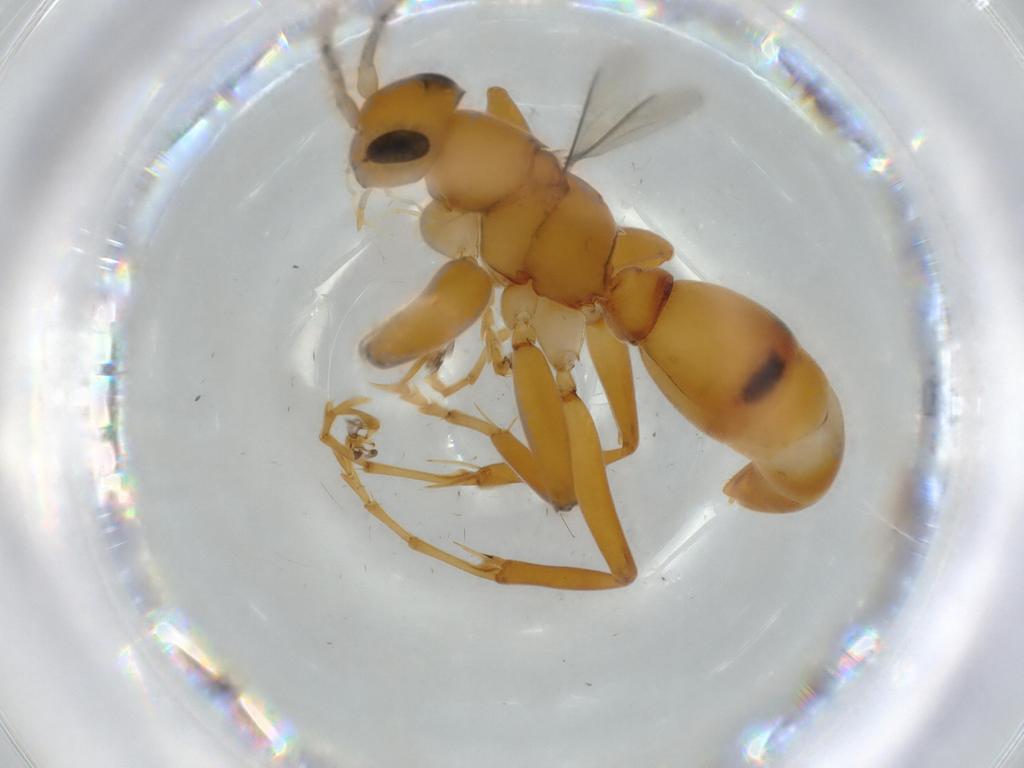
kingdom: Animalia
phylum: Arthropoda
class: Insecta
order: Hymenoptera
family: Rhopalosomatidae
